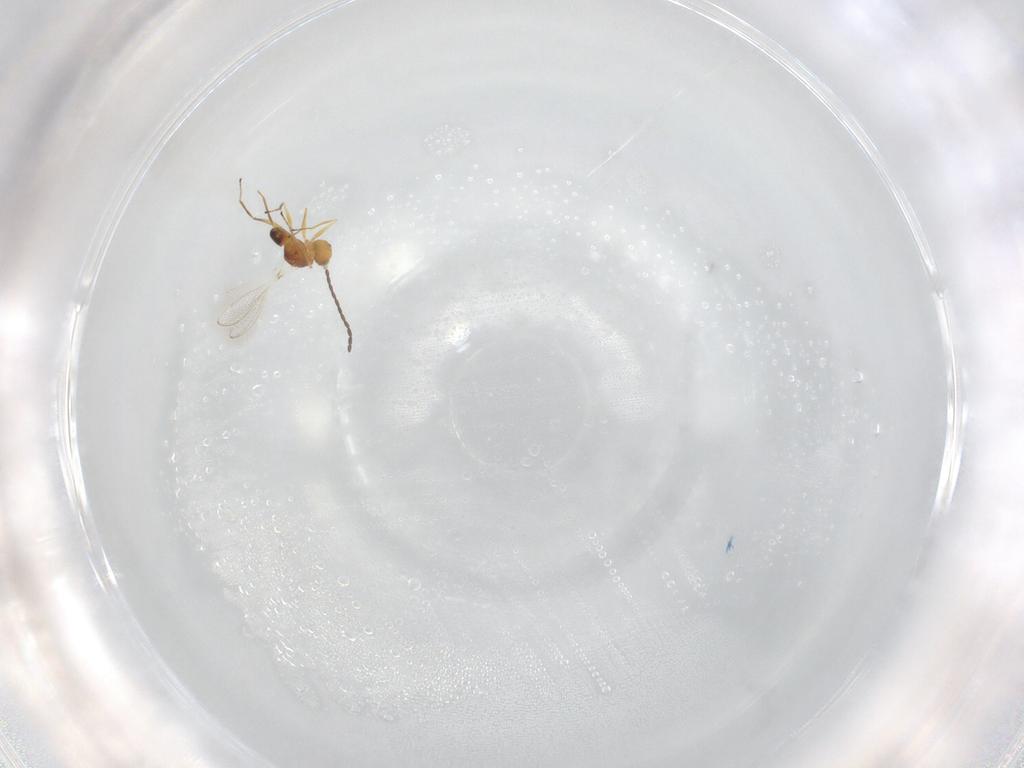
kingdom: Animalia
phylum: Arthropoda
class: Insecta
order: Hymenoptera
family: Mymaridae
